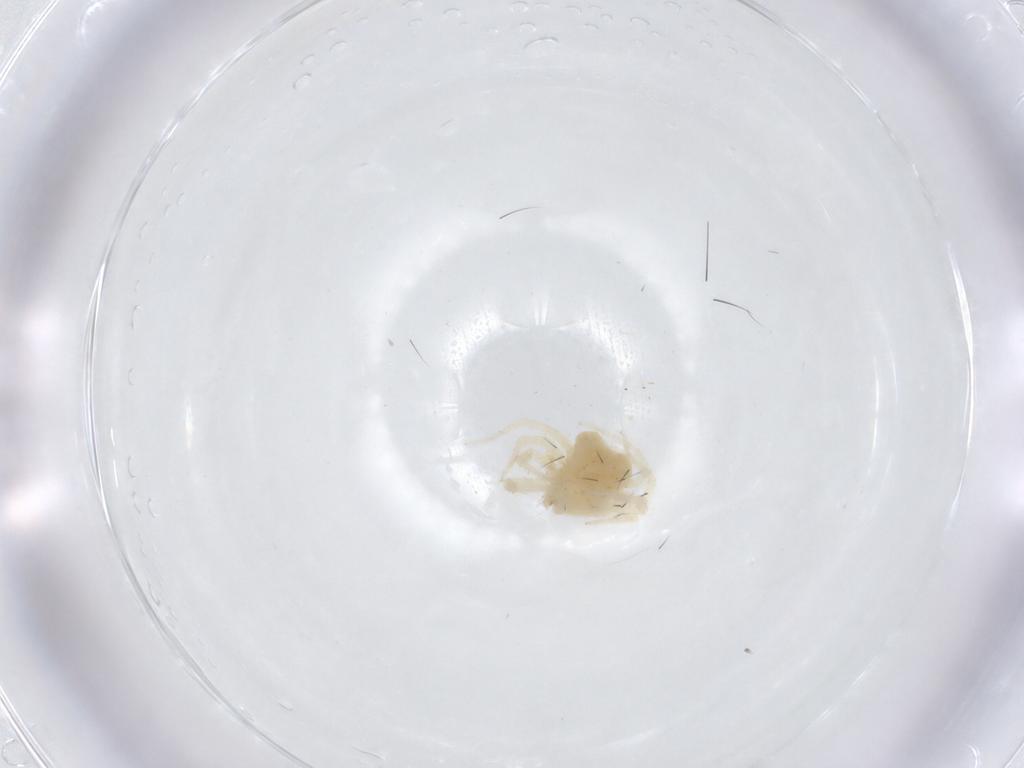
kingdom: Animalia
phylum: Arthropoda
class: Arachnida
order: Trombidiformes
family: Anystidae
